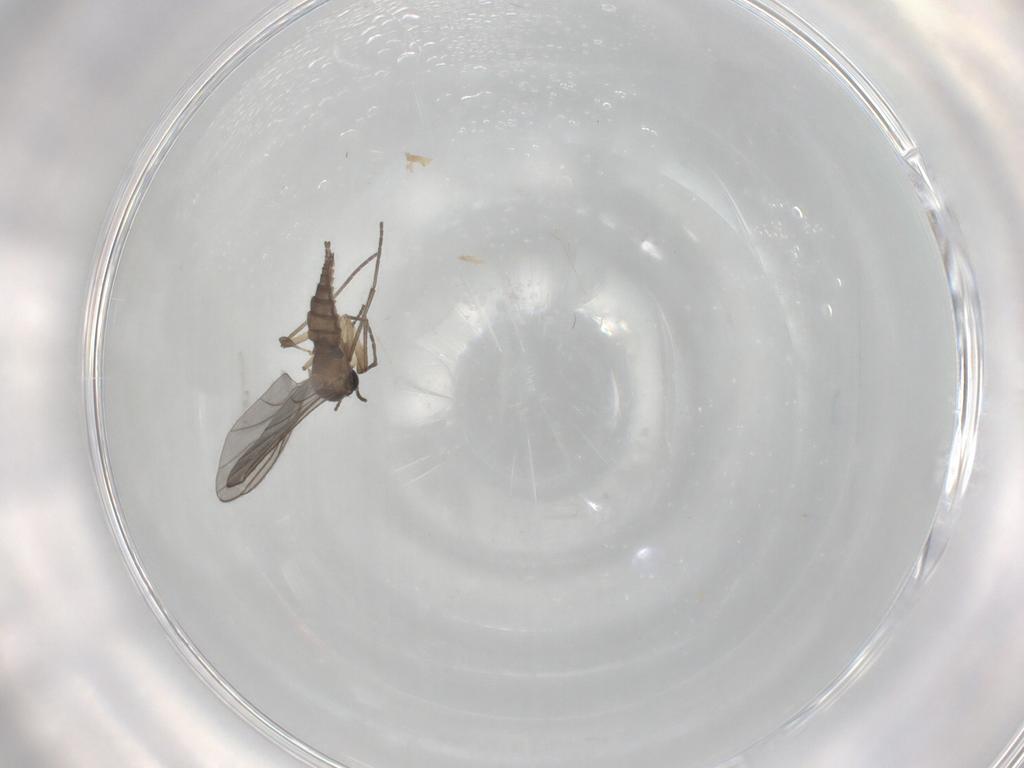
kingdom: Animalia
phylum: Arthropoda
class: Insecta
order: Diptera
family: Sciaridae
